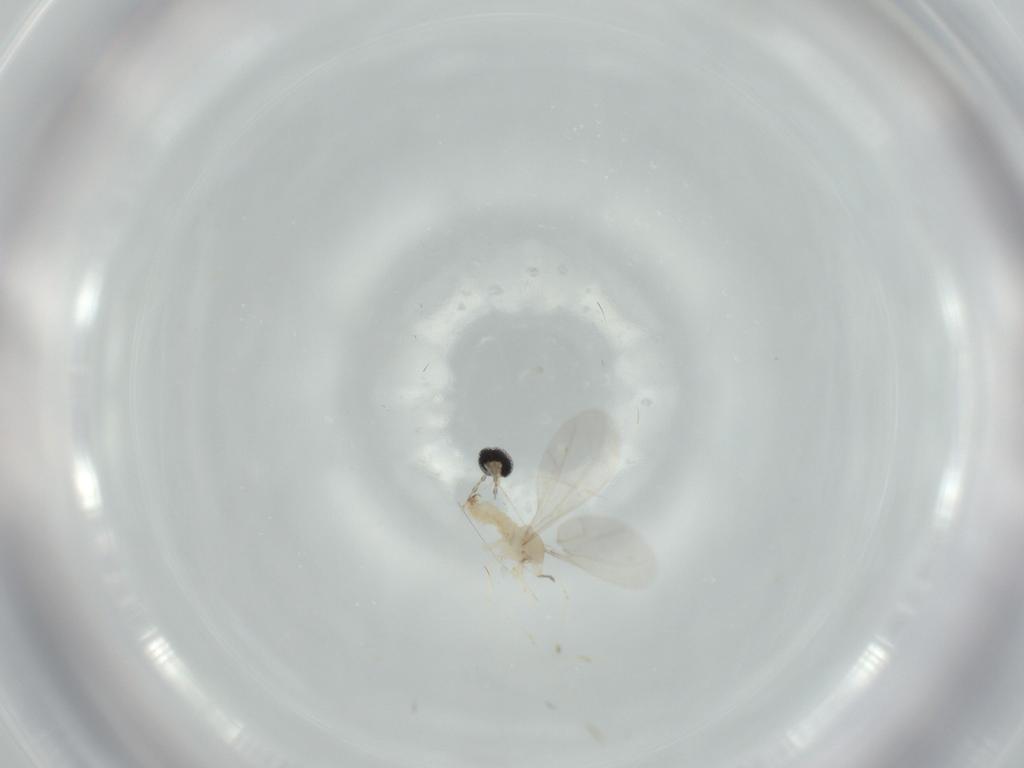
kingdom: Animalia
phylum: Arthropoda
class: Insecta
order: Diptera
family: Cecidomyiidae
